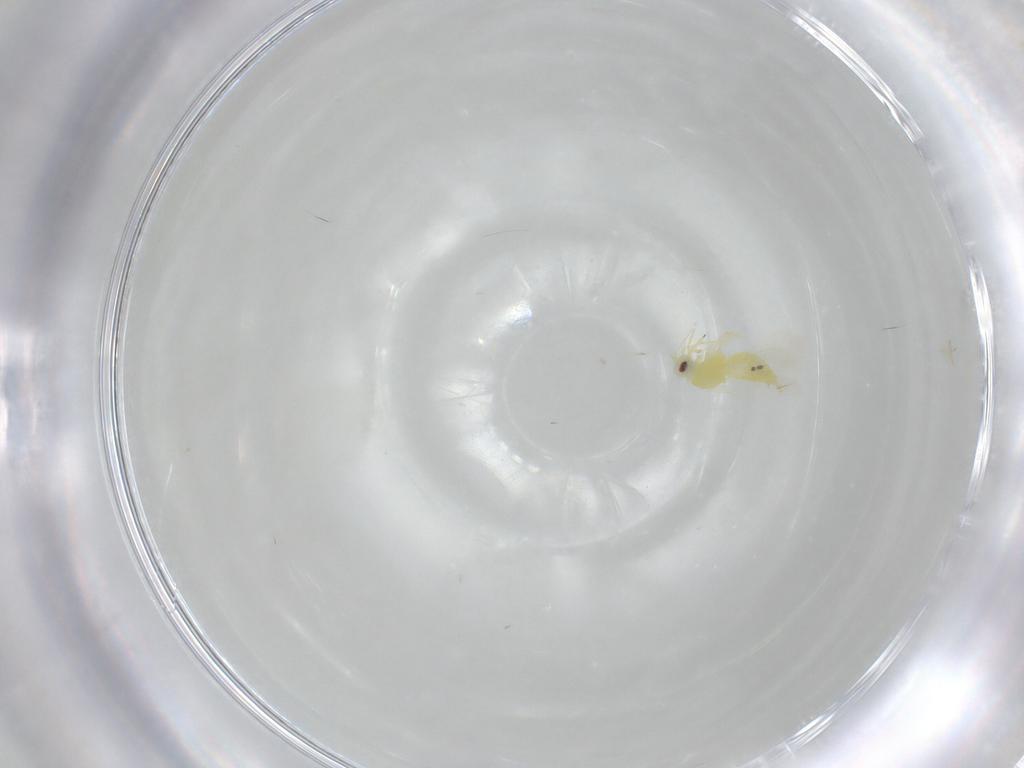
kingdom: Animalia
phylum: Arthropoda
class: Insecta
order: Hemiptera
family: Aleyrodidae
